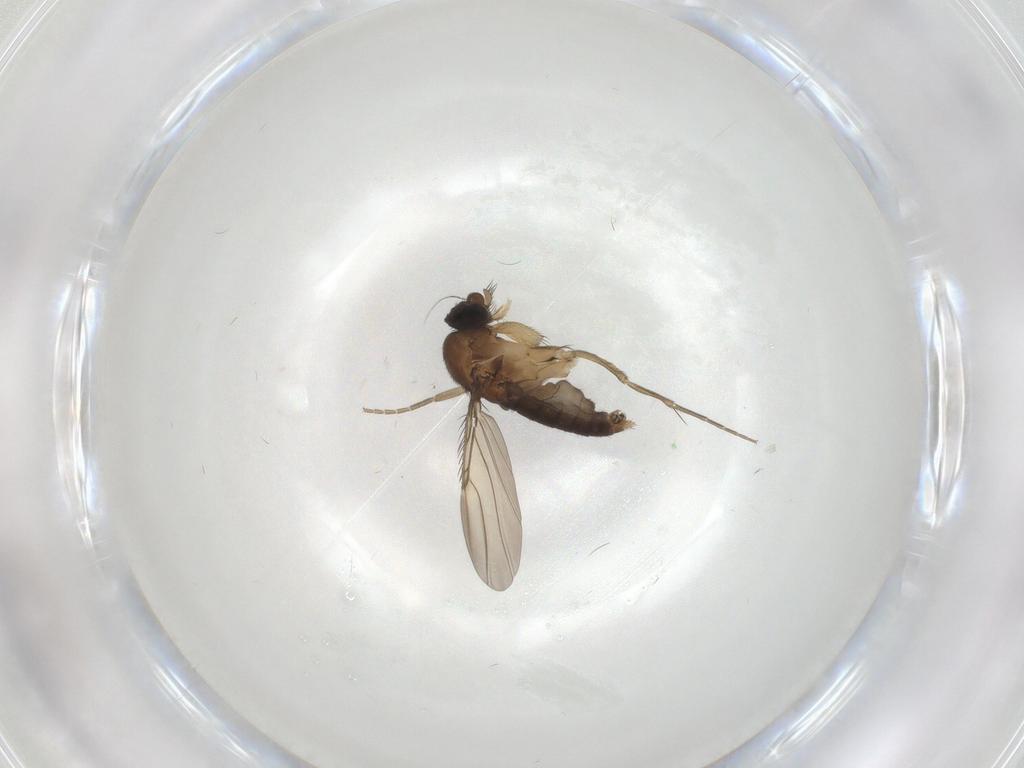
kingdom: Animalia
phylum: Arthropoda
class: Insecta
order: Diptera
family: Phoridae
